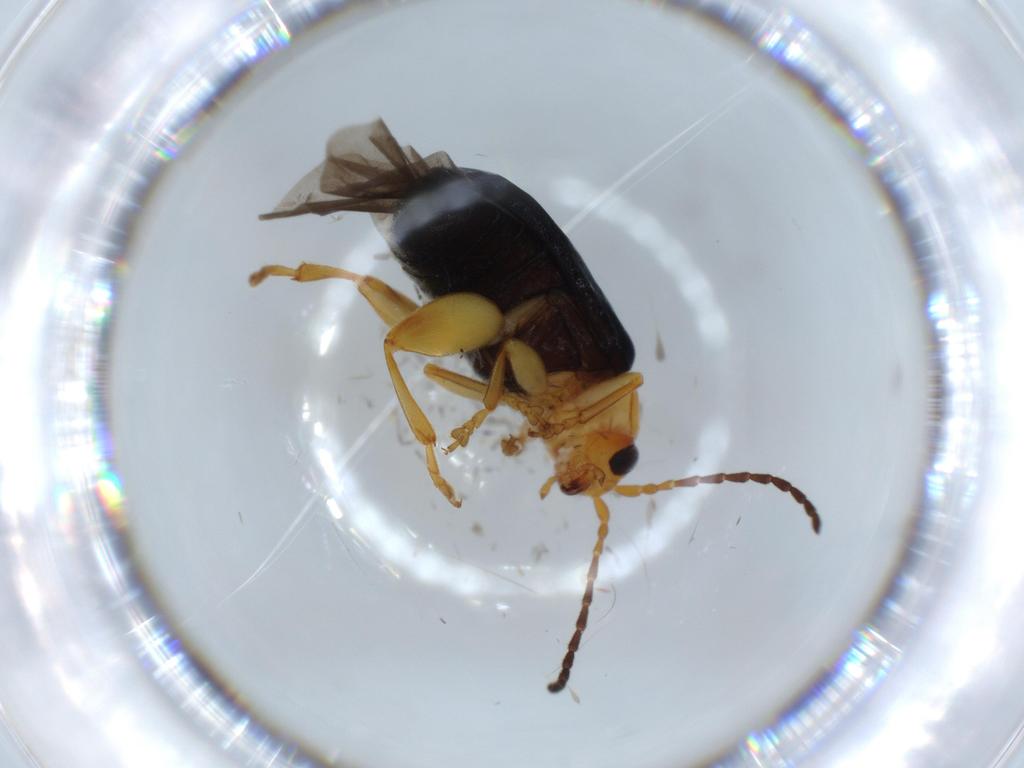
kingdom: Animalia
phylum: Arthropoda
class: Insecta
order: Coleoptera
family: Chrysomelidae
